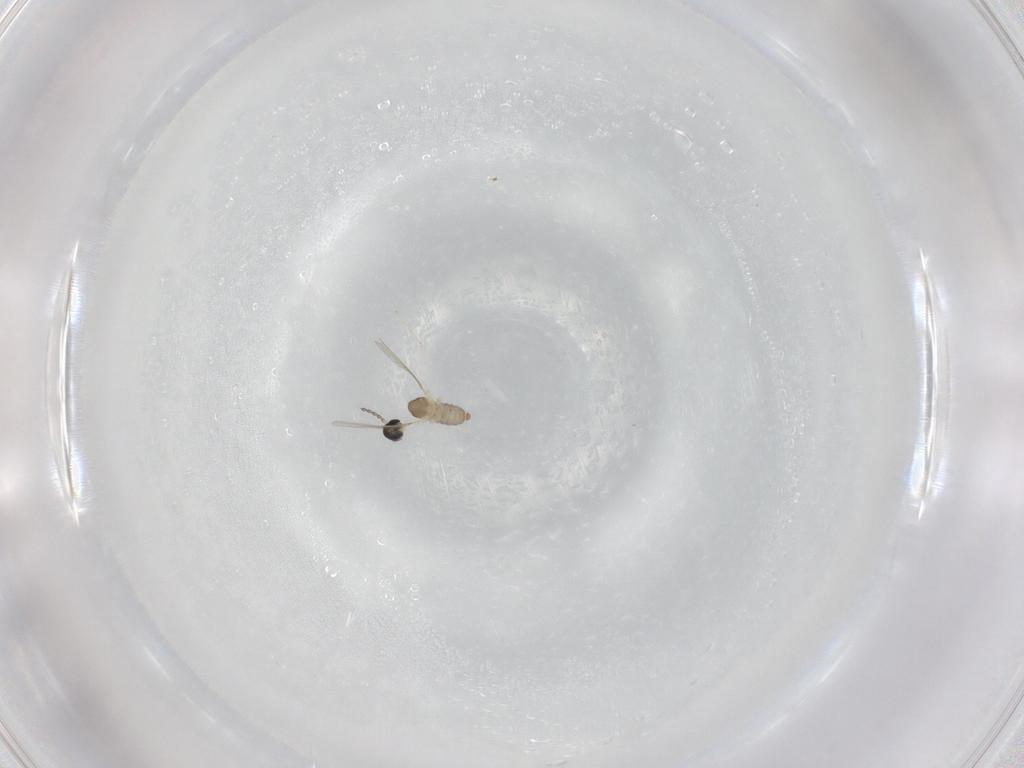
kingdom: Animalia
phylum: Arthropoda
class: Insecta
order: Diptera
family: Cecidomyiidae
